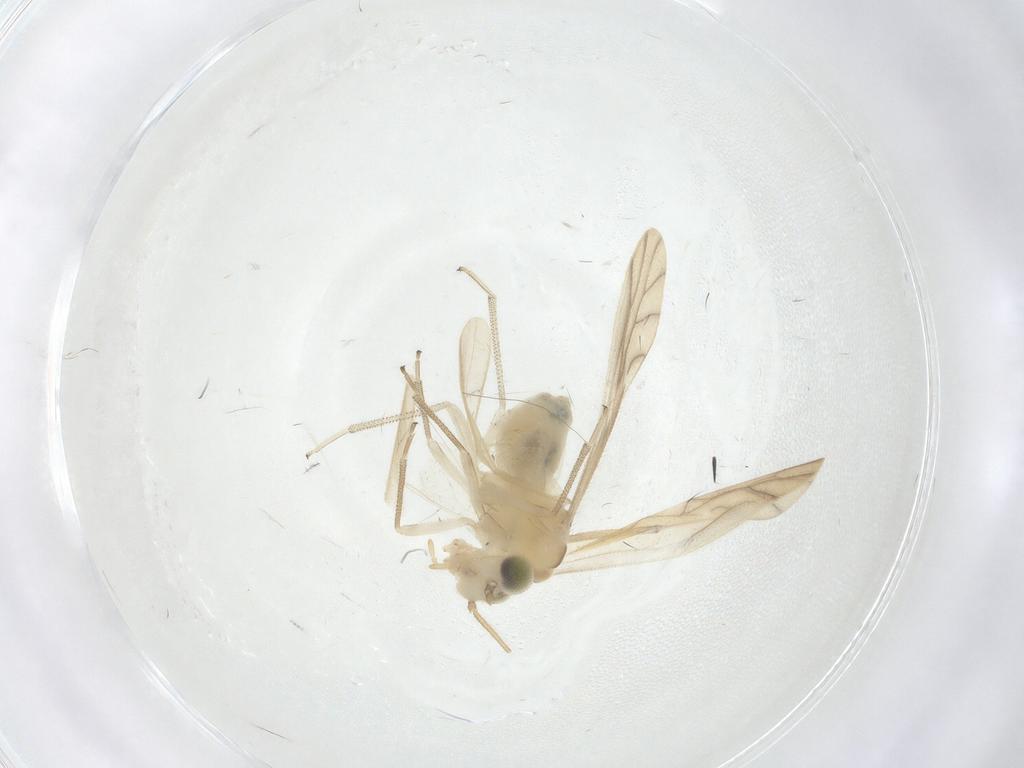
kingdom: Animalia
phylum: Arthropoda
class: Insecta
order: Psocodea
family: Caeciliusidae
